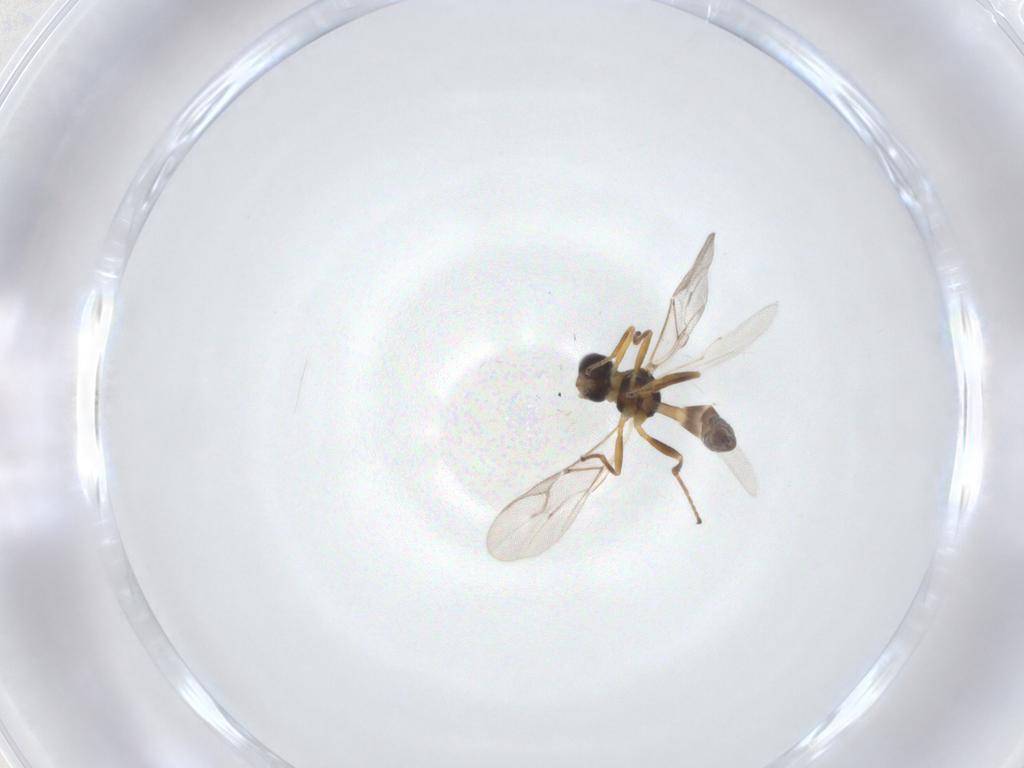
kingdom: Animalia
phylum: Arthropoda
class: Insecta
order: Hymenoptera
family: Braconidae
